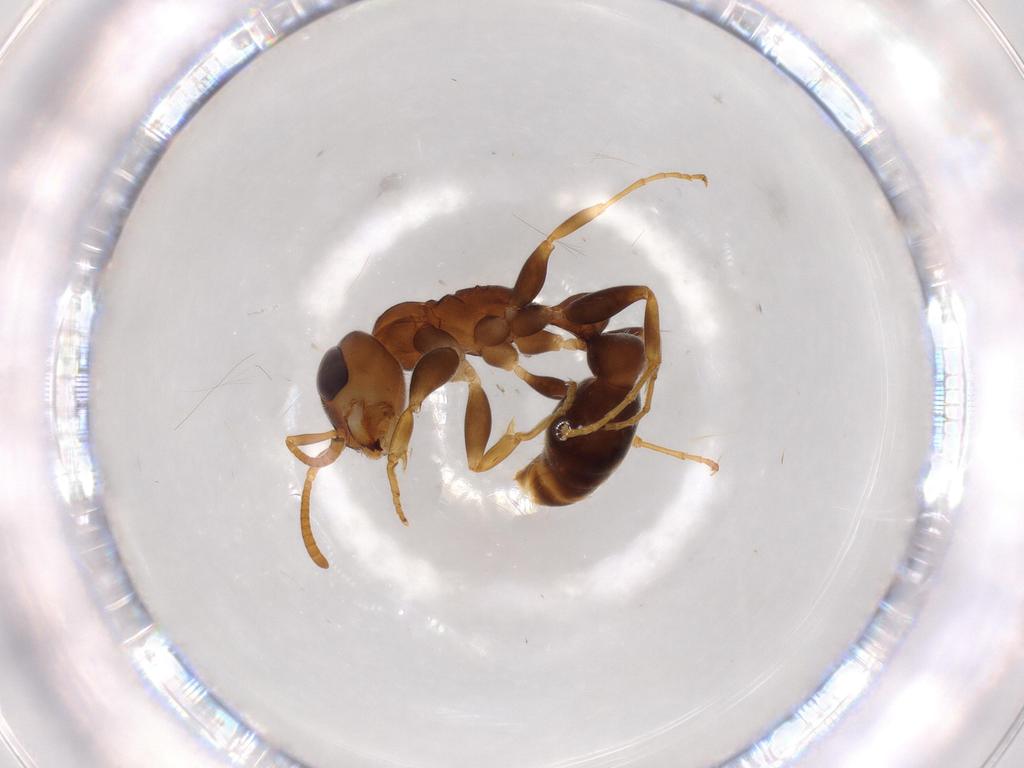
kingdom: Animalia
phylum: Arthropoda
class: Insecta
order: Hymenoptera
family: Formicidae
